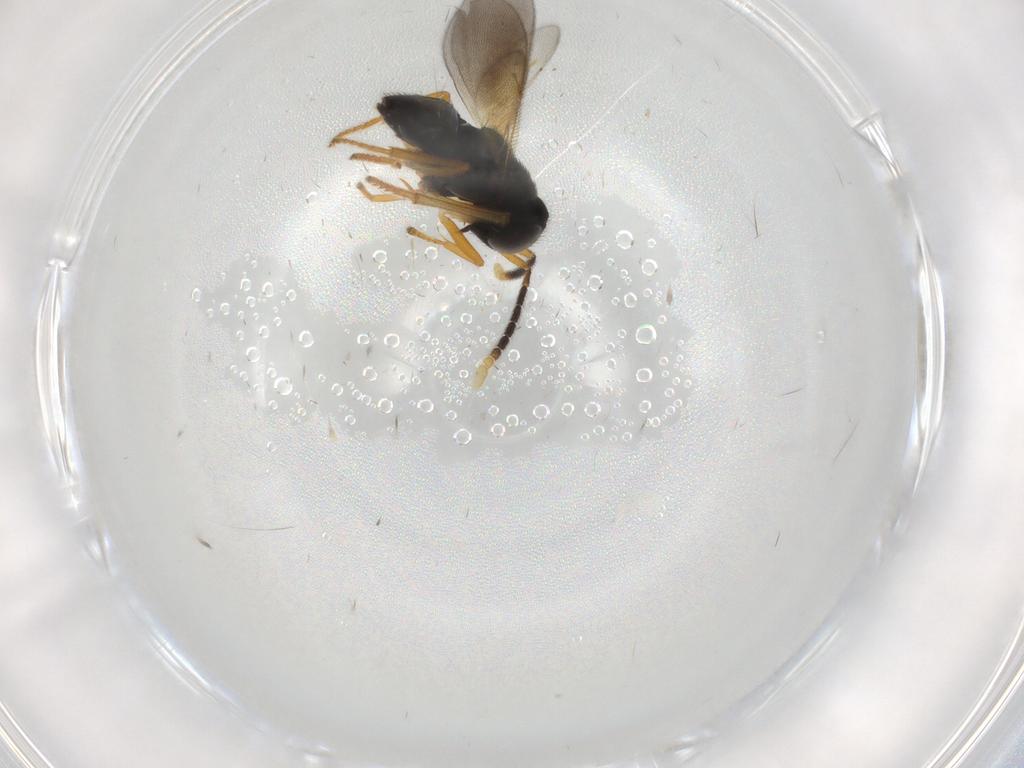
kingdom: Animalia
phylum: Arthropoda
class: Insecta
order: Hymenoptera
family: Encyrtidae
